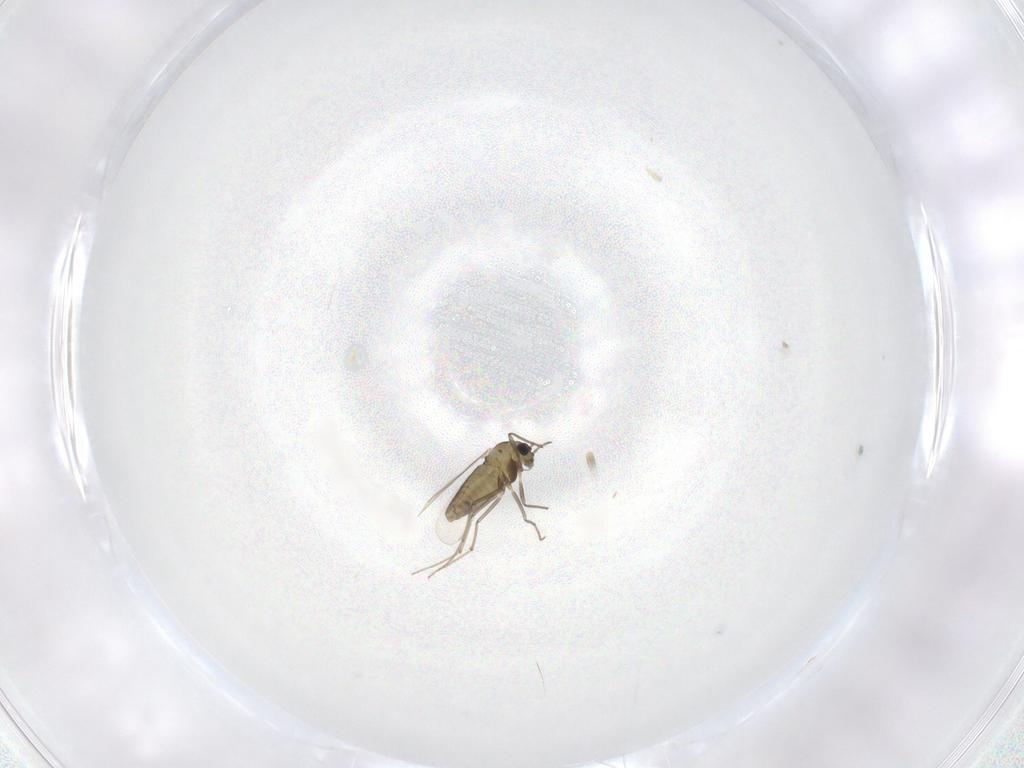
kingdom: Animalia
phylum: Arthropoda
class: Insecta
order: Diptera
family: Chironomidae
